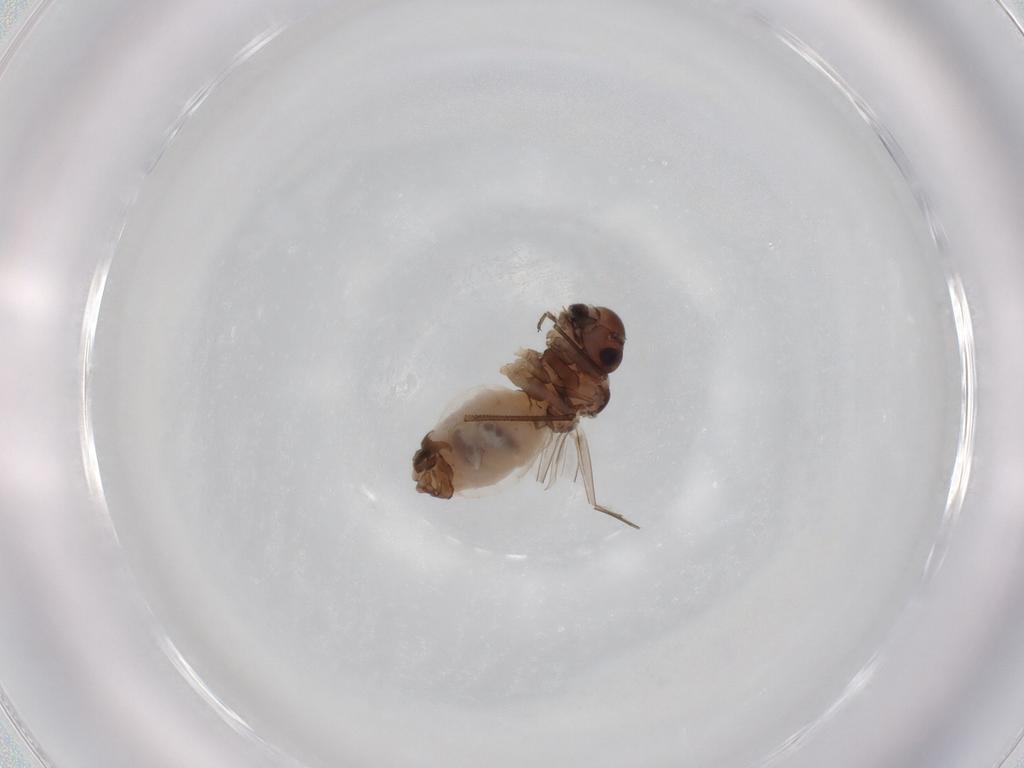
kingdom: Animalia
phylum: Arthropoda
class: Insecta
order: Psocodea
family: Peripsocidae
